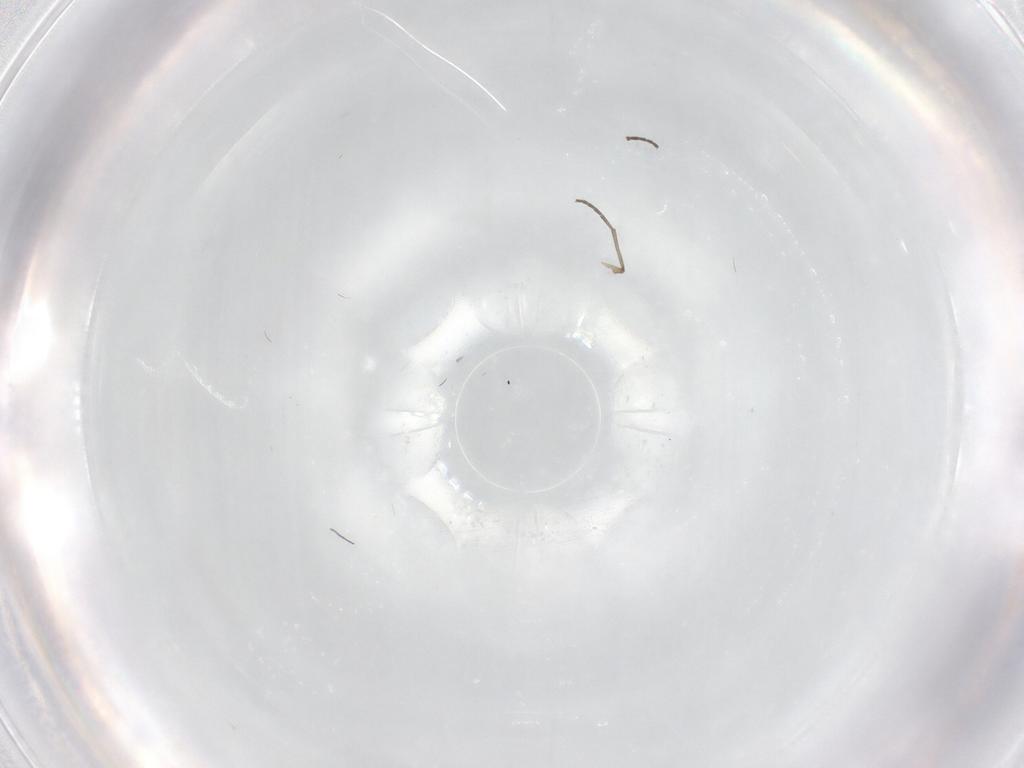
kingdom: Animalia
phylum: Arthropoda
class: Insecta
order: Diptera
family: Sciaridae
